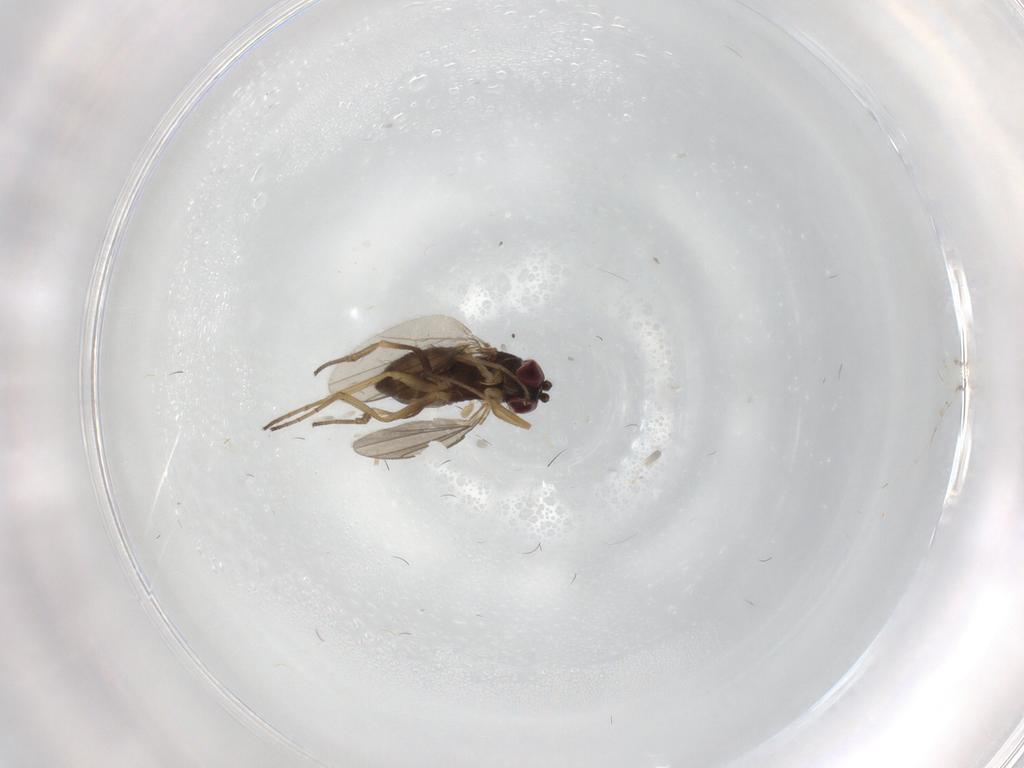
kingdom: Animalia
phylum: Arthropoda
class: Insecta
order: Diptera
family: Dolichopodidae
